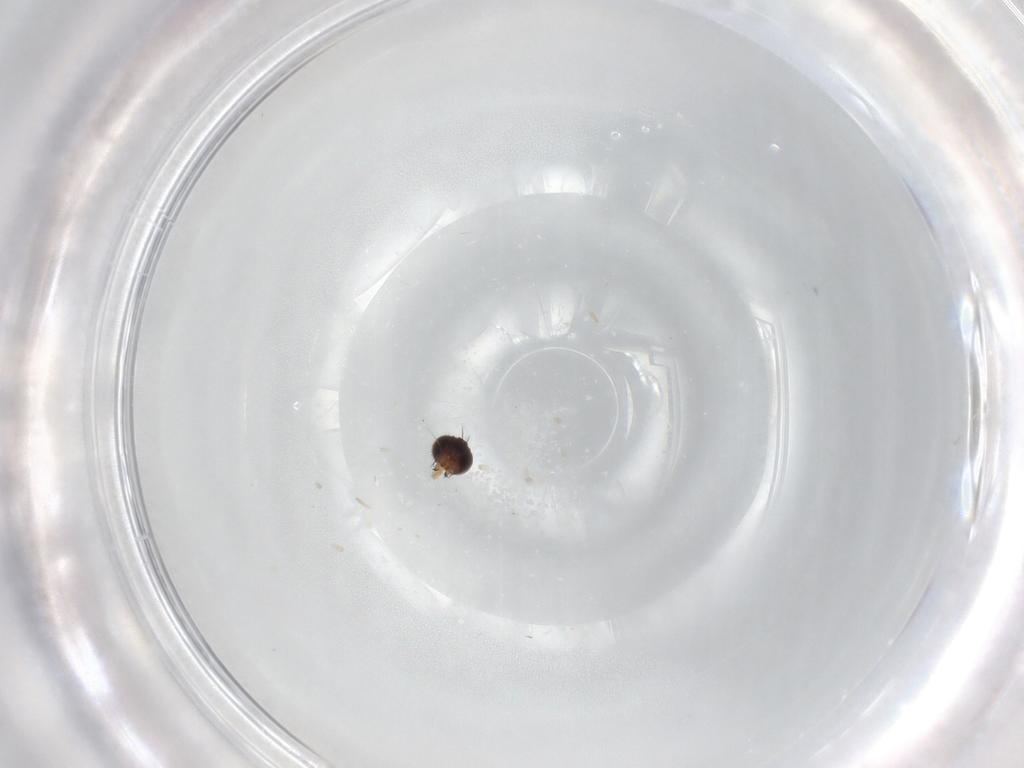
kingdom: Animalia
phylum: Arthropoda
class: Insecta
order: Diptera
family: Phoridae
